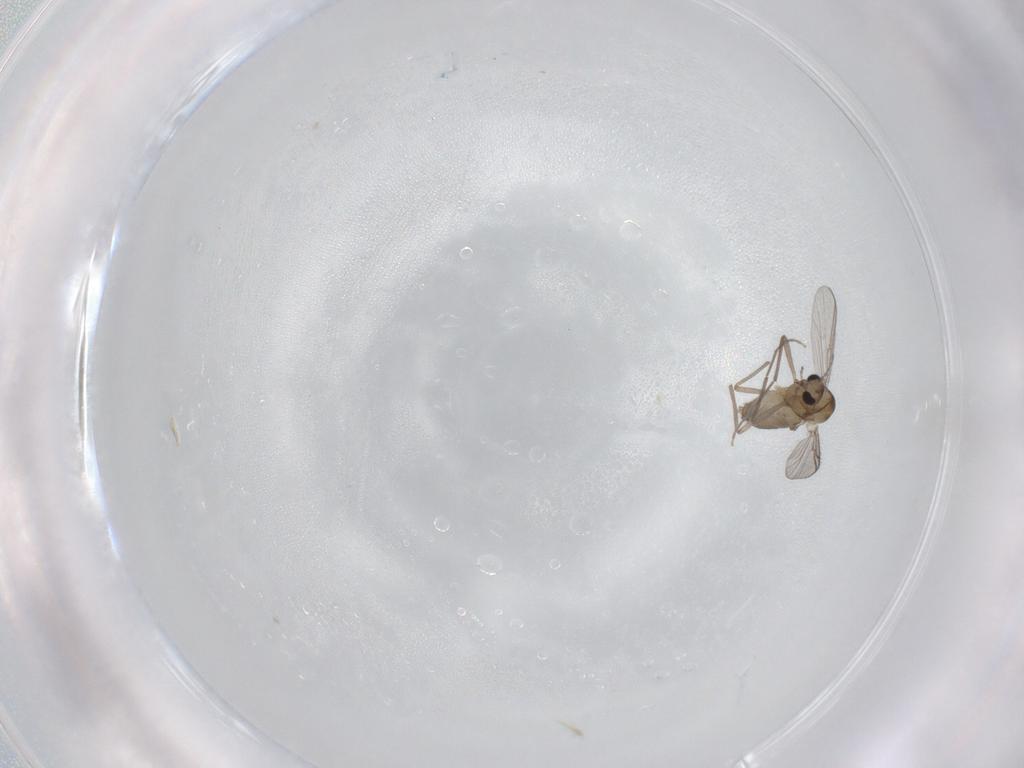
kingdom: Animalia
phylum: Arthropoda
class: Insecta
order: Diptera
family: Chironomidae
